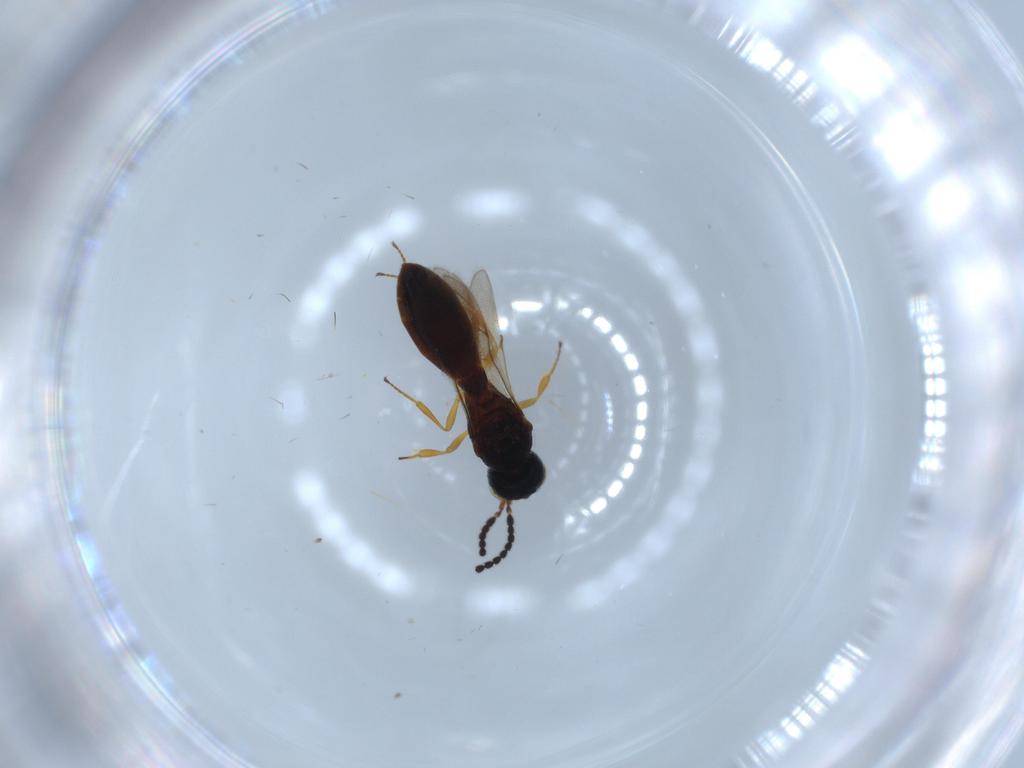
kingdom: Animalia
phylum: Arthropoda
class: Insecta
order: Hymenoptera
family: Scelionidae
